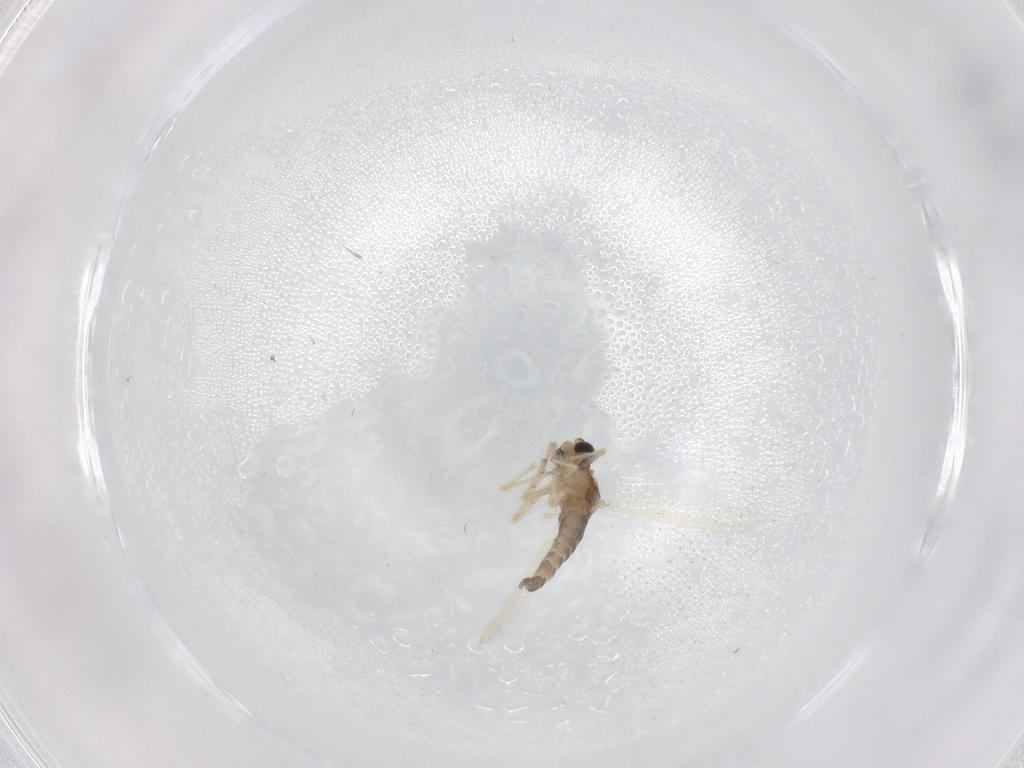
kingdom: Animalia
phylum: Arthropoda
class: Insecta
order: Diptera
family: Chironomidae
